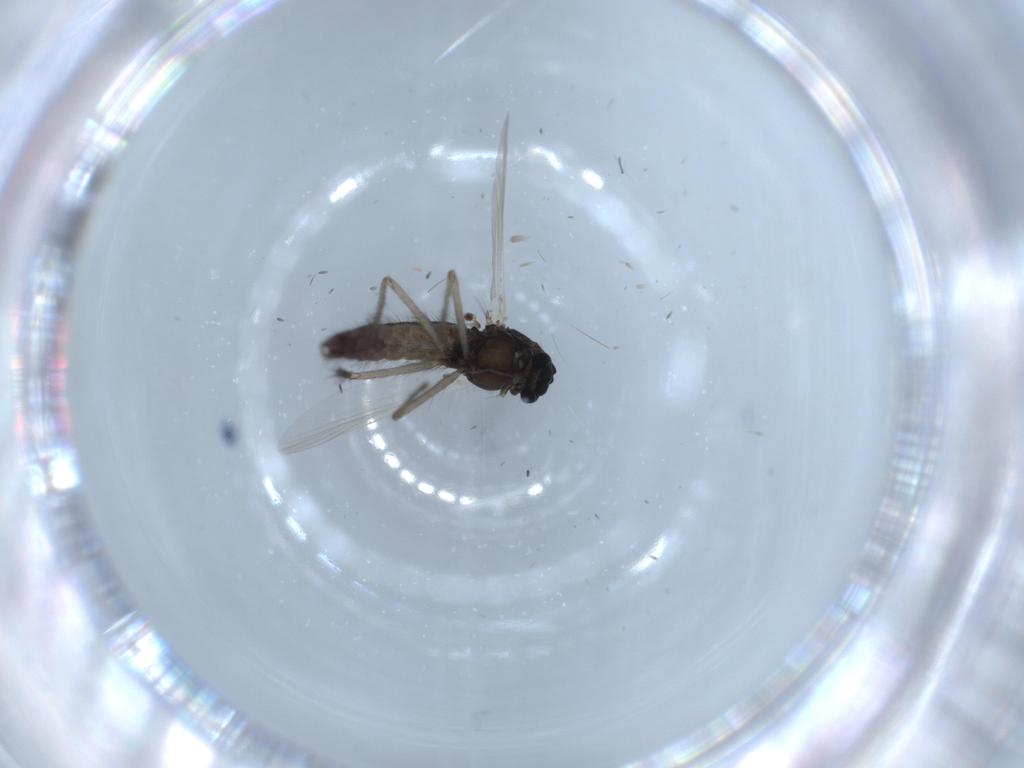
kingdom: Animalia
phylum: Arthropoda
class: Insecta
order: Diptera
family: Chironomidae
